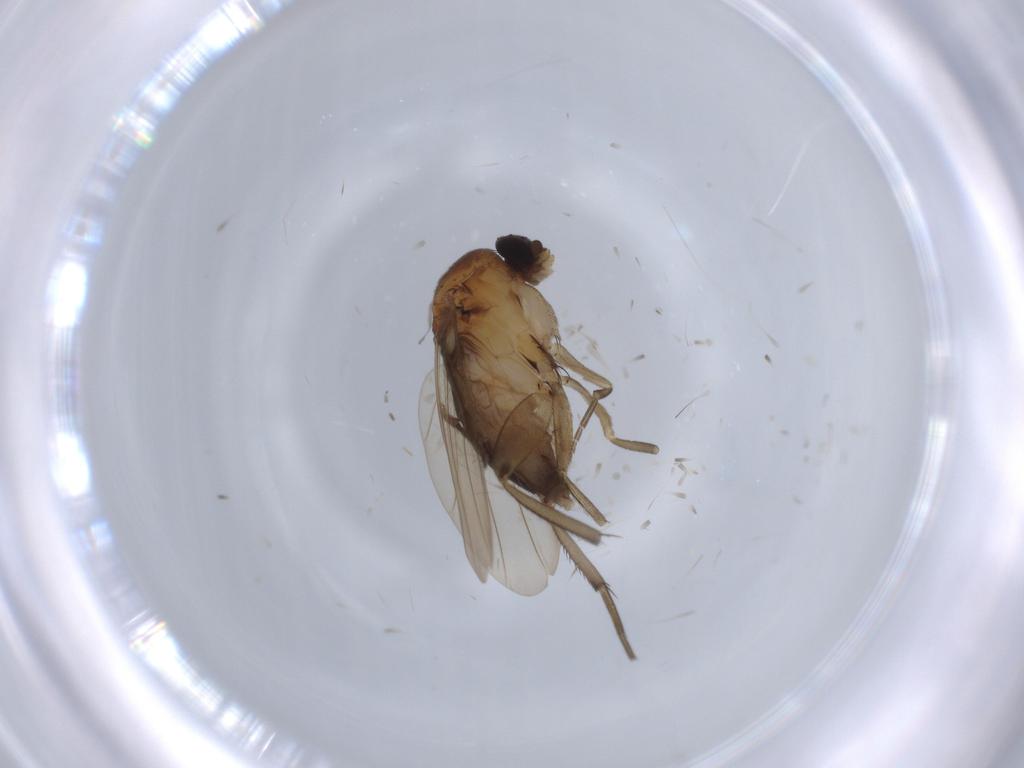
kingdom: Animalia
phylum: Arthropoda
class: Insecta
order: Diptera
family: Phoridae
